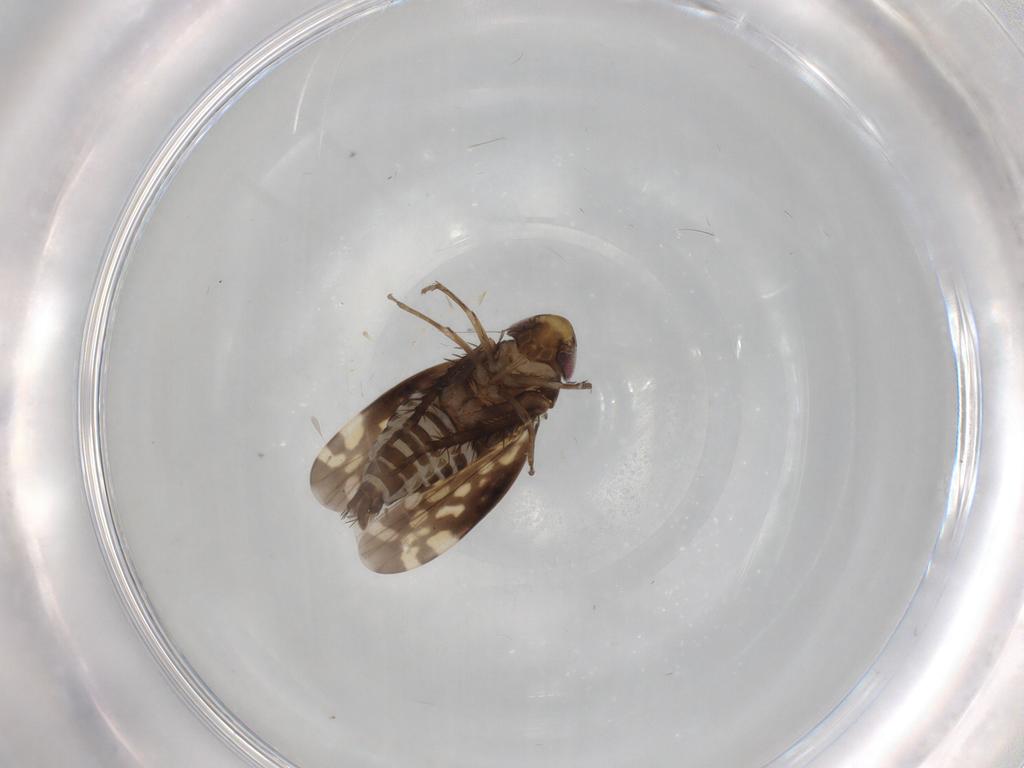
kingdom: Animalia
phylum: Arthropoda
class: Insecta
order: Hemiptera
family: Cicadellidae
